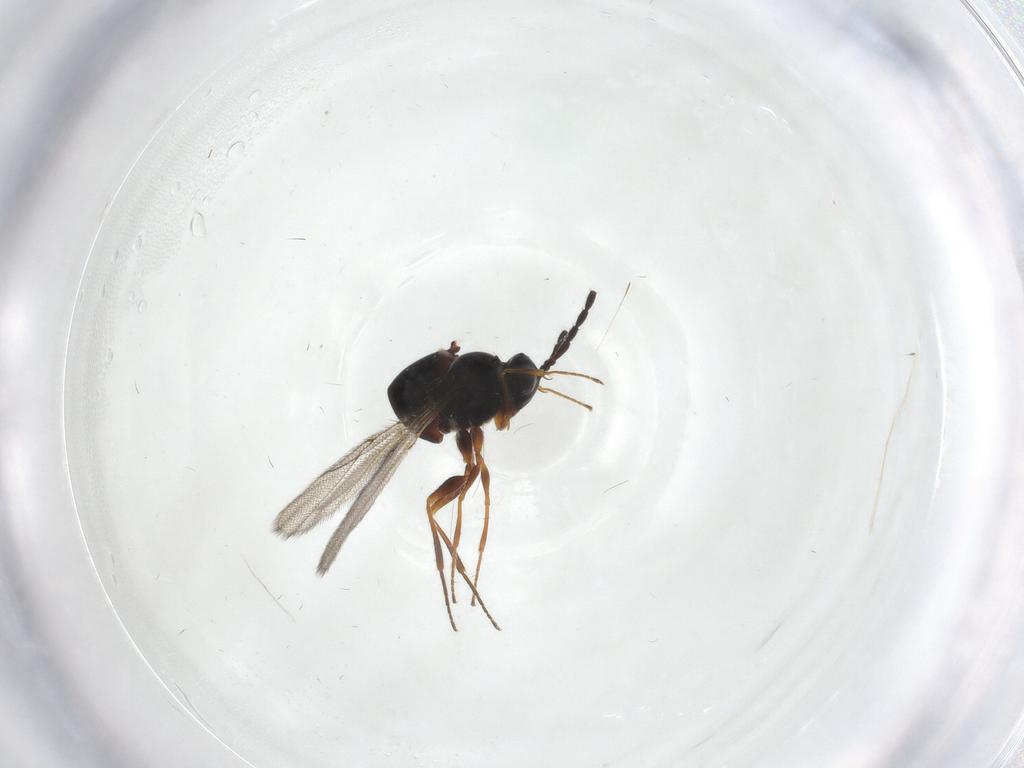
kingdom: Animalia
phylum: Arthropoda
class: Insecta
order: Hymenoptera
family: Figitidae
